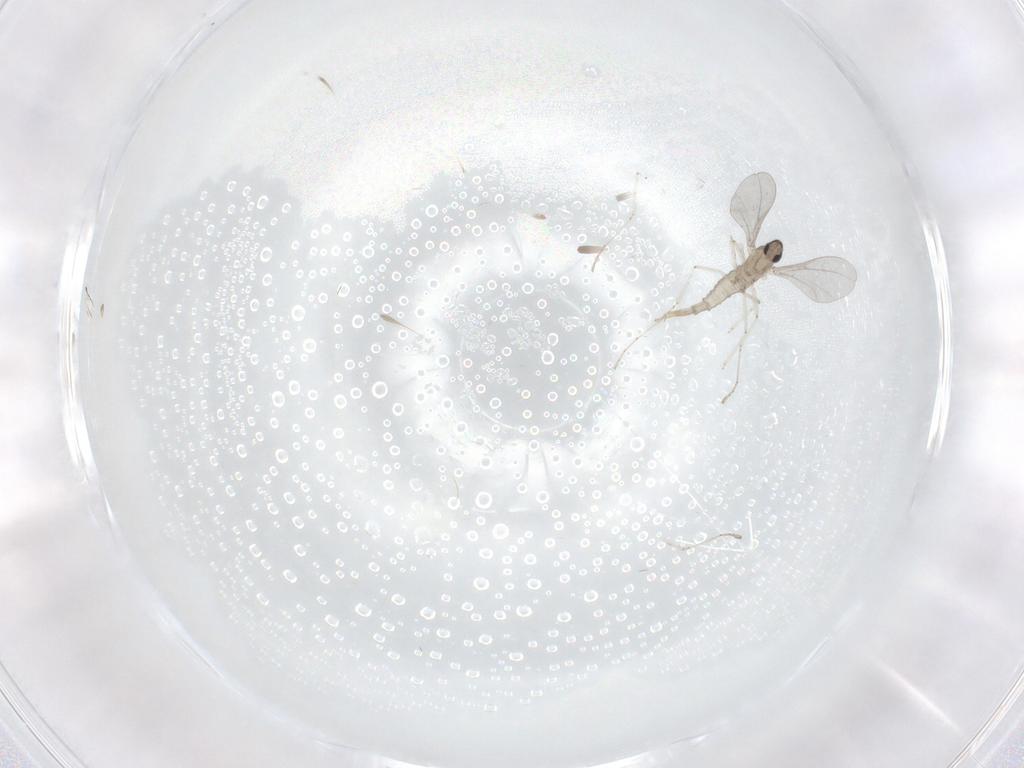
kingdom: Animalia
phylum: Arthropoda
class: Insecta
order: Diptera
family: Cecidomyiidae
